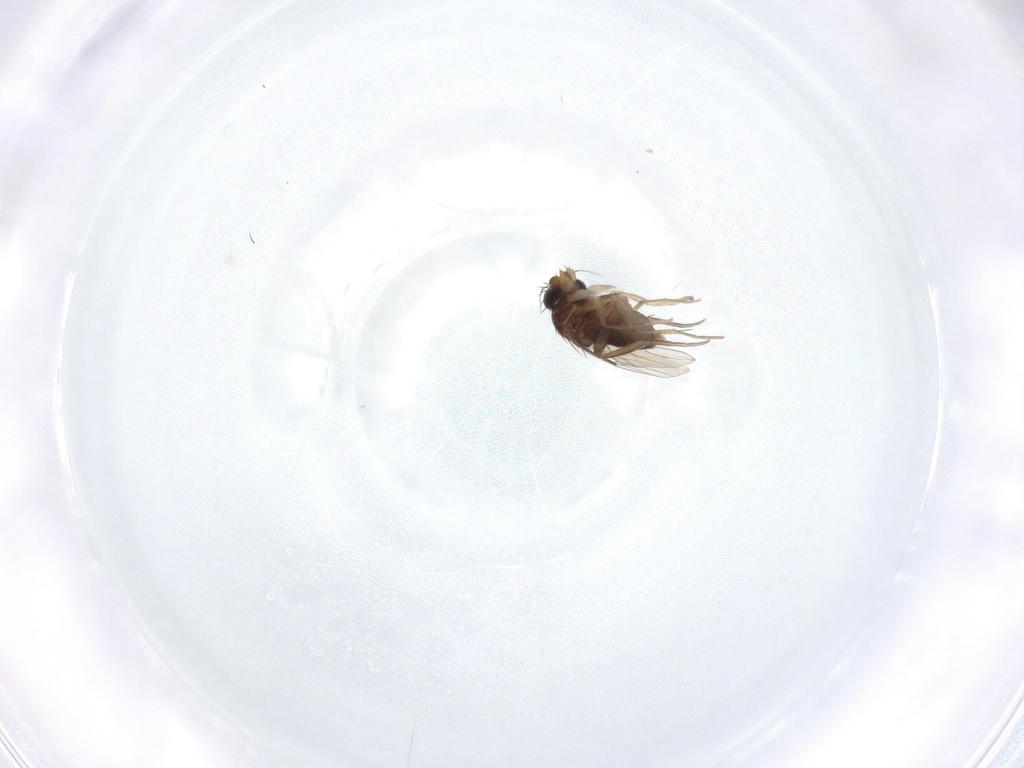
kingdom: Animalia
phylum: Arthropoda
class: Insecta
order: Diptera
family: Phoridae
